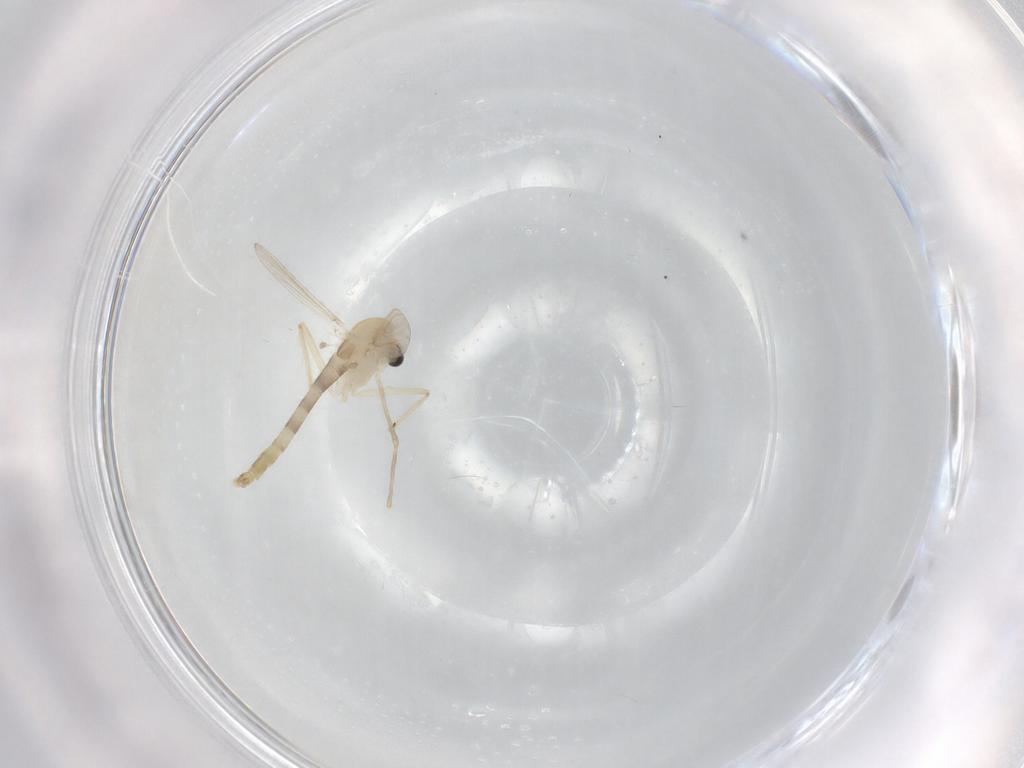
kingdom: Animalia
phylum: Arthropoda
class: Insecta
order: Diptera
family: Chironomidae
